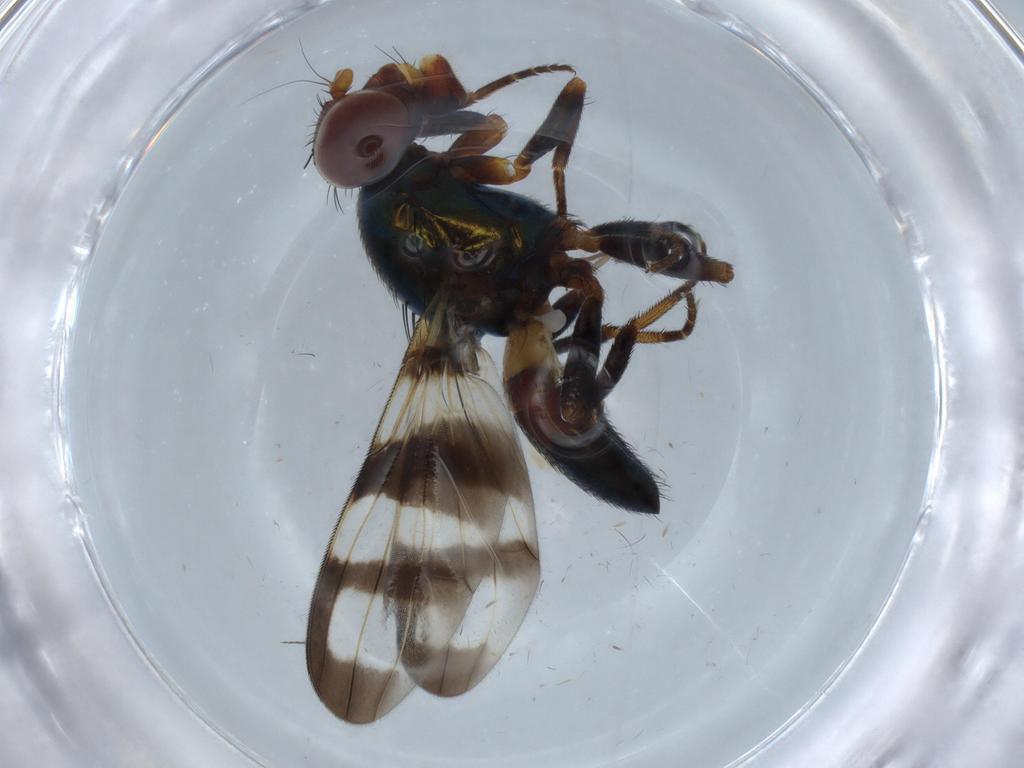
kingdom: Animalia
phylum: Arthropoda
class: Insecta
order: Diptera
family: Ulidiidae
